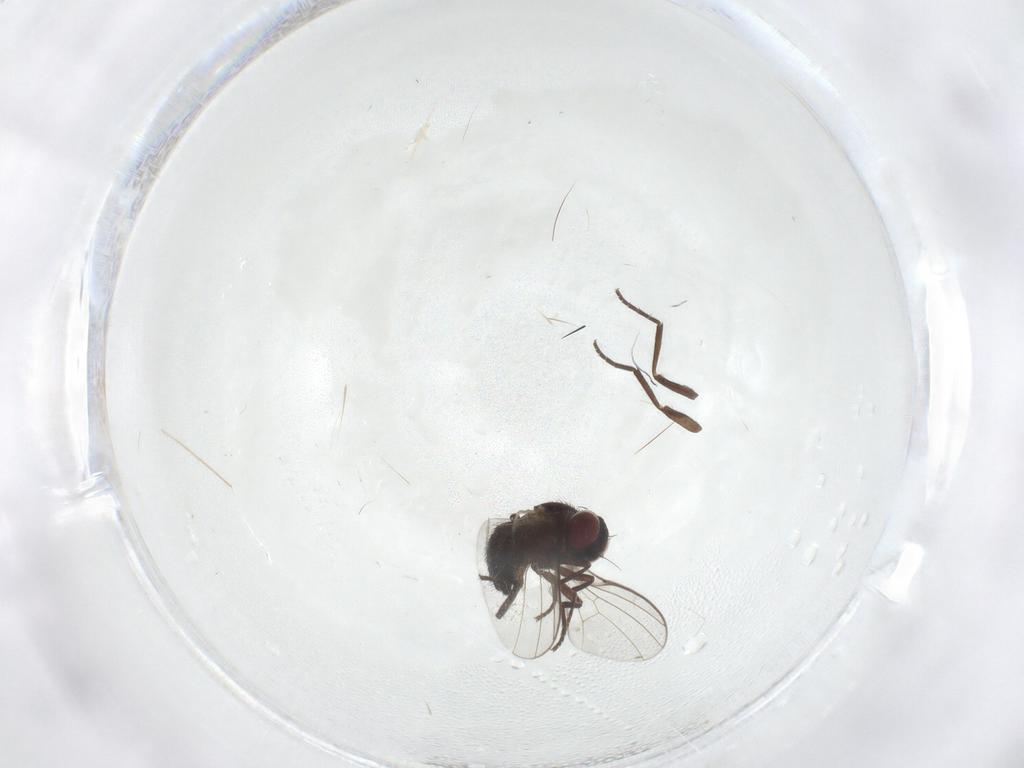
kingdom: Animalia
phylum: Arthropoda
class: Insecta
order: Diptera
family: Agromyzidae
